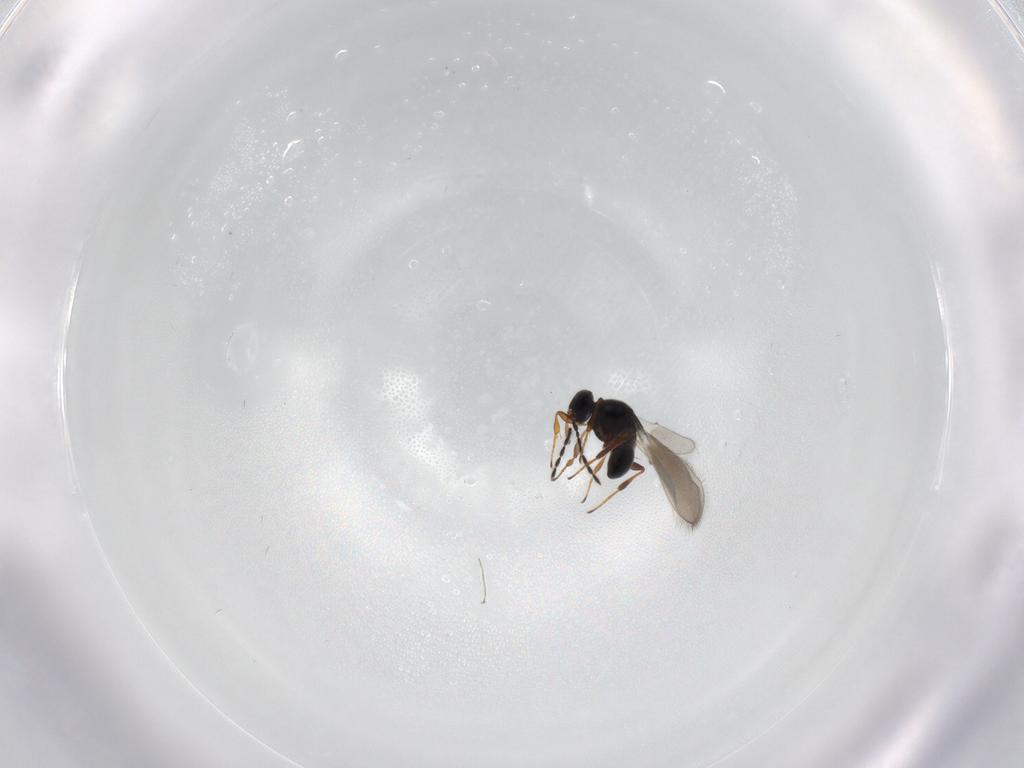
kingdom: Animalia
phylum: Arthropoda
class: Insecta
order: Hymenoptera
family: Platygastridae
